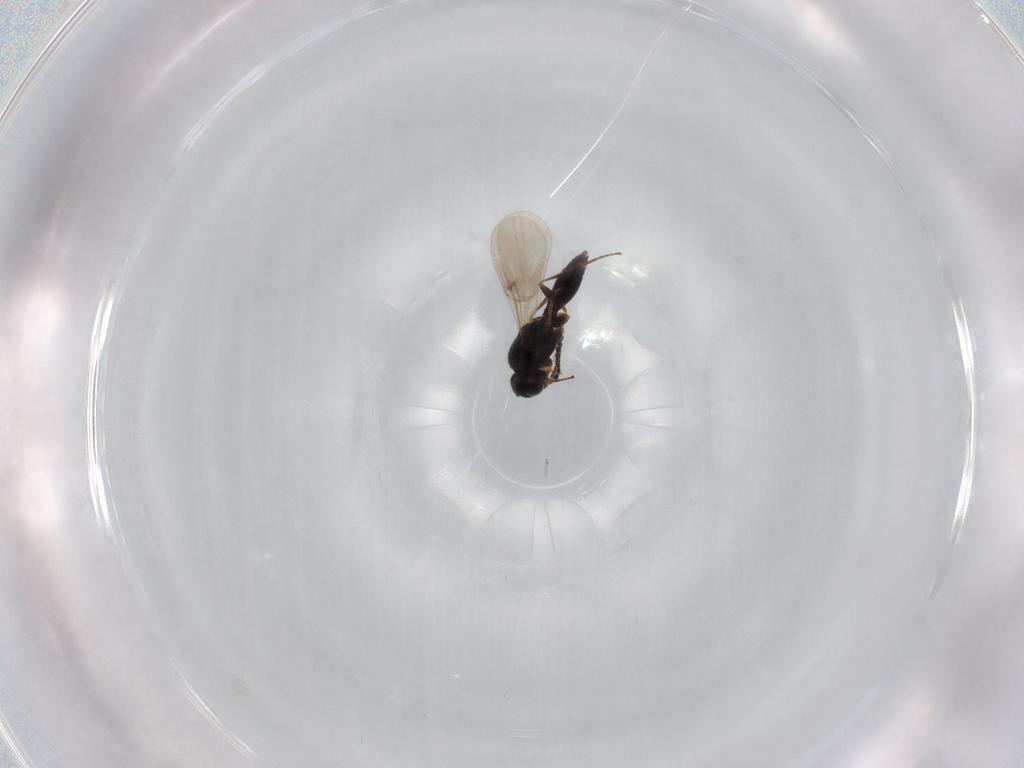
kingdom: Animalia
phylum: Arthropoda
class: Insecta
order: Hymenoptera
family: Platygastridae
